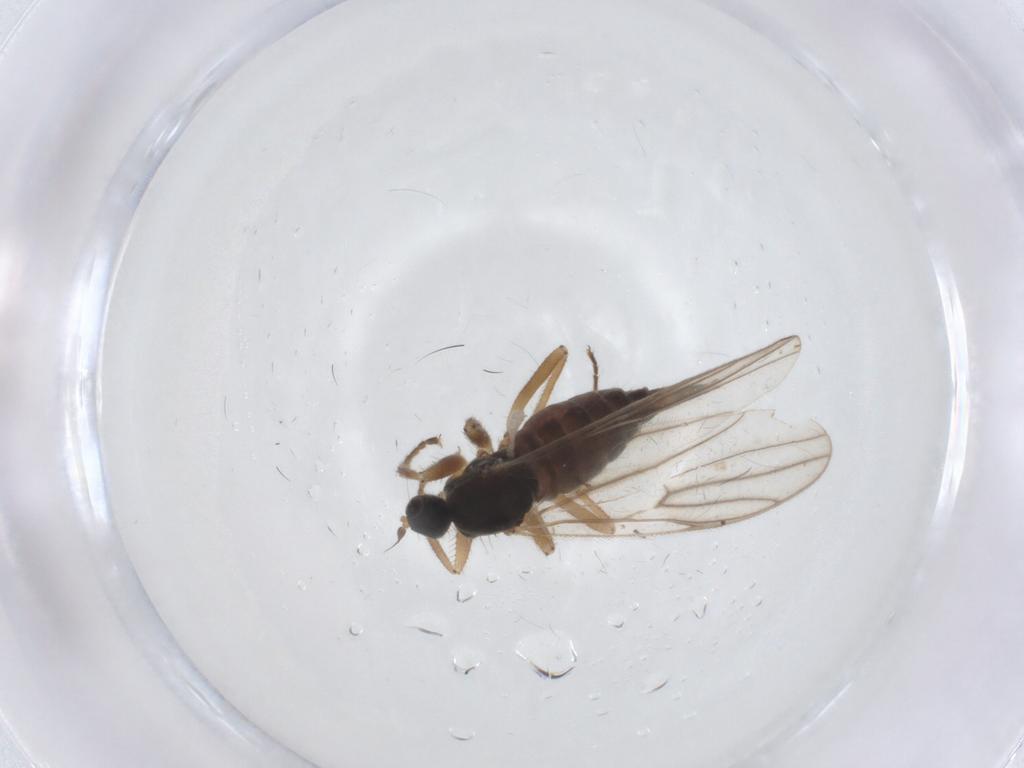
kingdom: Animalia
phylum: Arthropoda
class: Insecta
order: Diptera
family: Hybotidae
